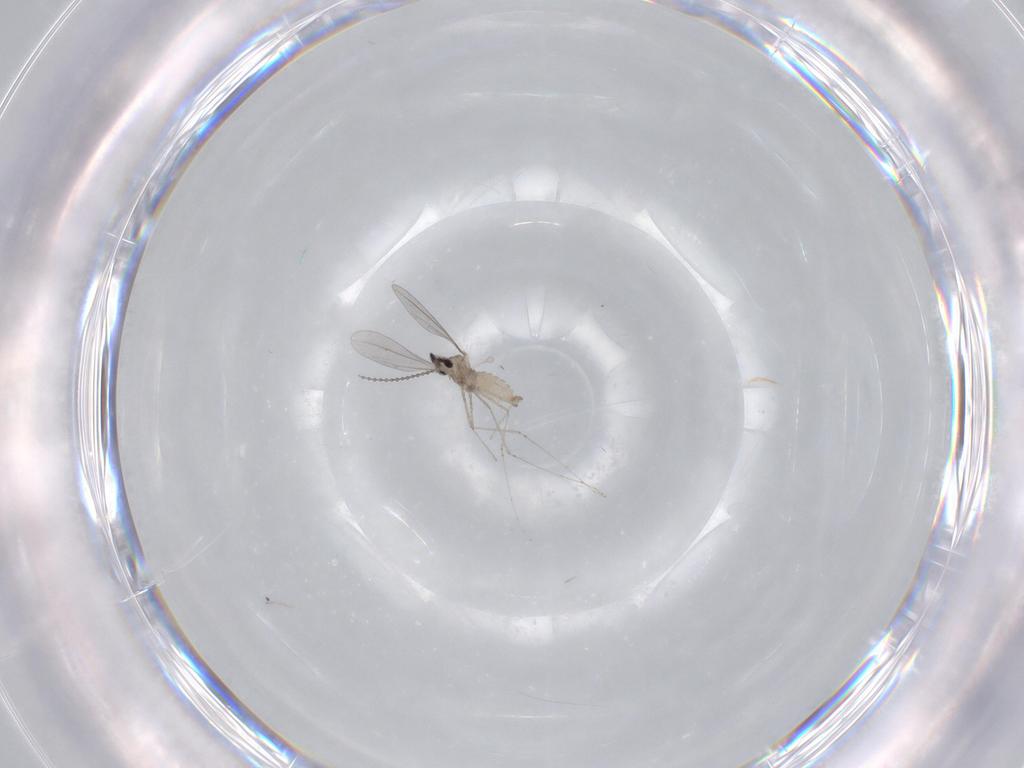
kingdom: Animalia
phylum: Arthropoda
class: Insecta
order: Diptera
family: Cecidomyiidae
